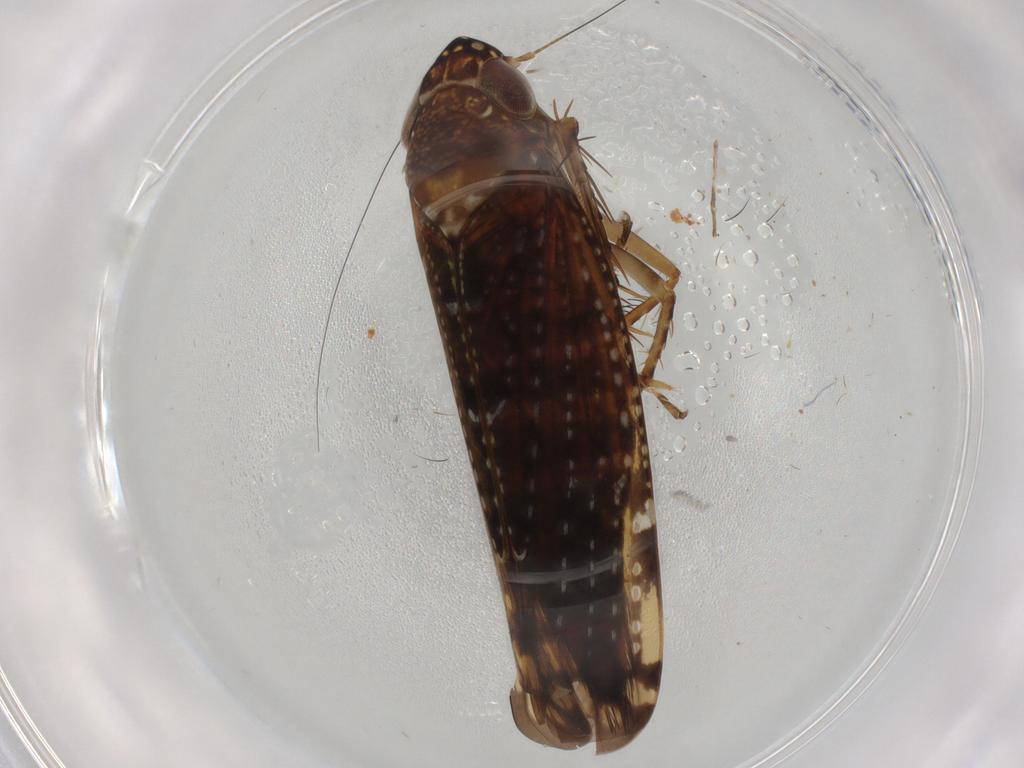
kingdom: Animalia
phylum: Arthropoda
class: Insecta
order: Hemiptera
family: Cicadellidae
